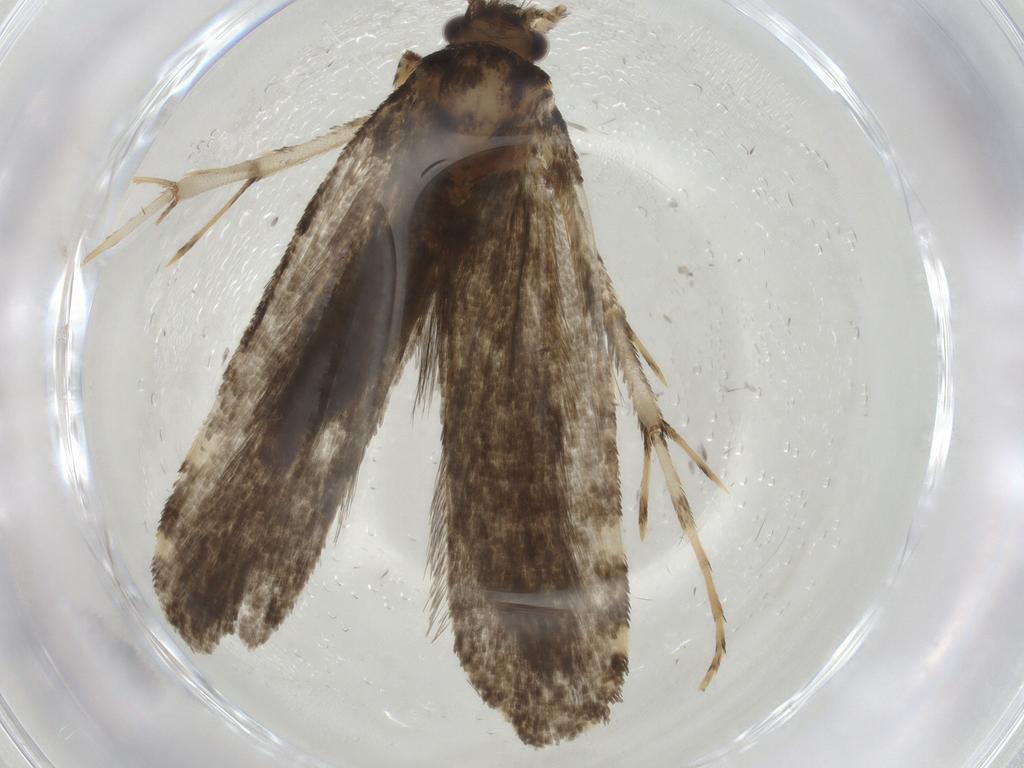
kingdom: Animalia
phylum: Arthropoda
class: Insecta
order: Lepidoptera
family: Tineidae
